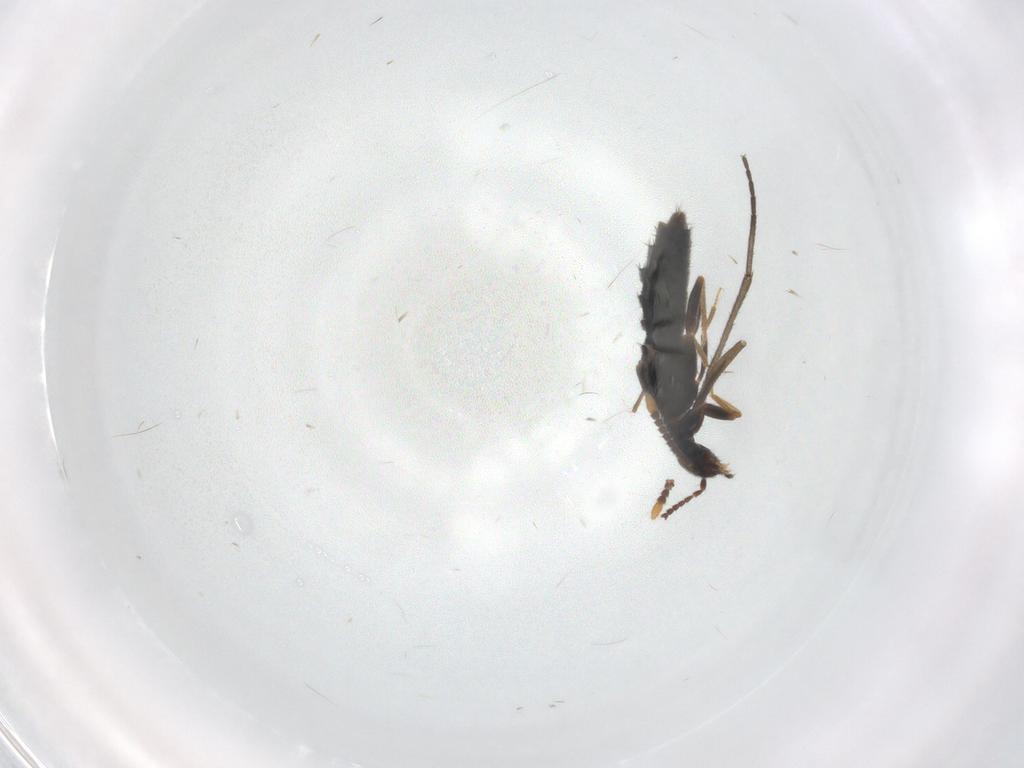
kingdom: Animalia
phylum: Arthropoda
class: Insecta
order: Coleoptera
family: Staphylinidae
